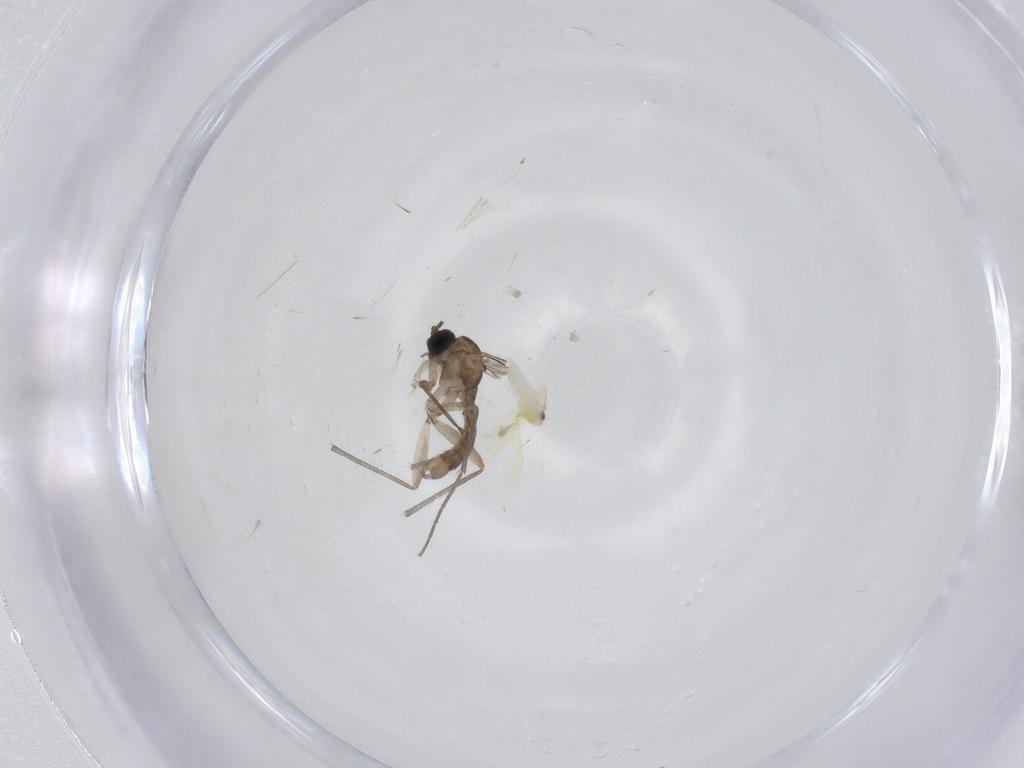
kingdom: Animalia
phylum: Arthropoda
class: Insecta
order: Diptera
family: Sciaridae
